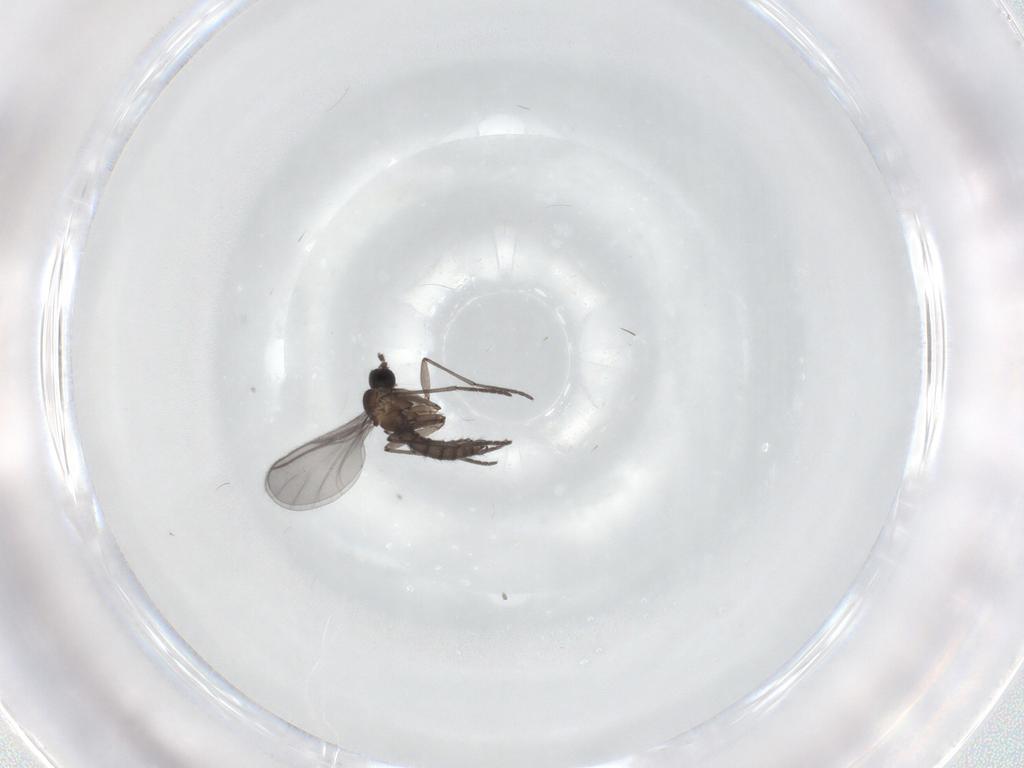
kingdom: Animalia
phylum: Arthropoda
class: Insecta
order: Diptera
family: Chironomidae
